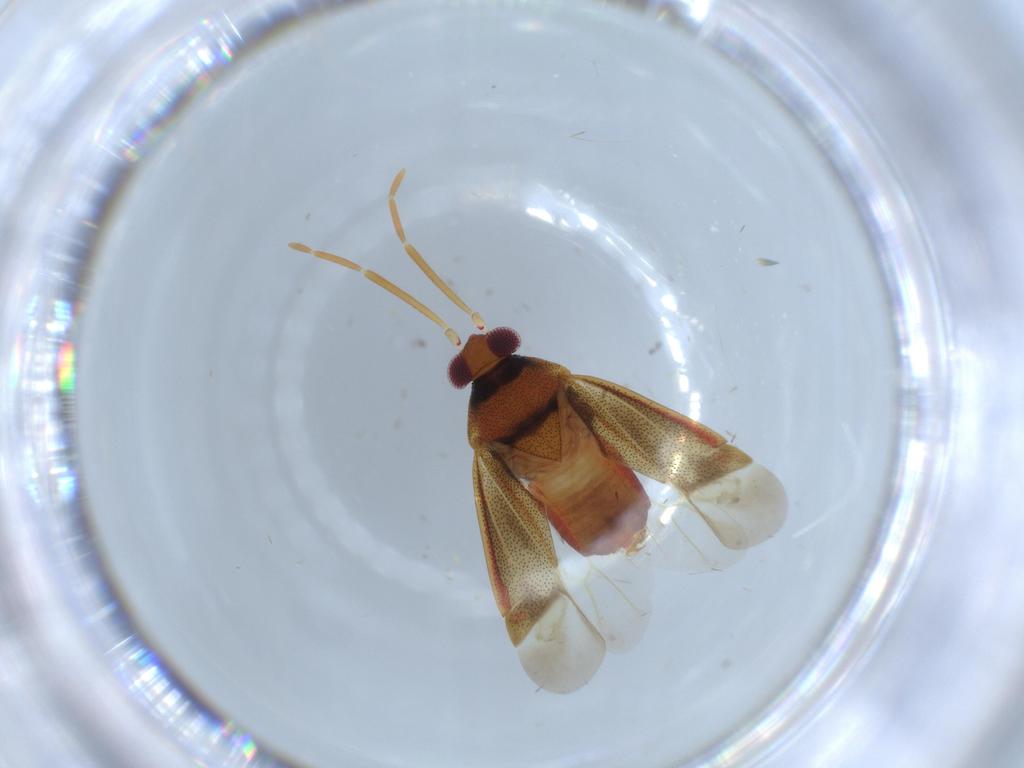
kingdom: Animalia
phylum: Arthropoda
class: Insecta
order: Hemiptera
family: Miridae
